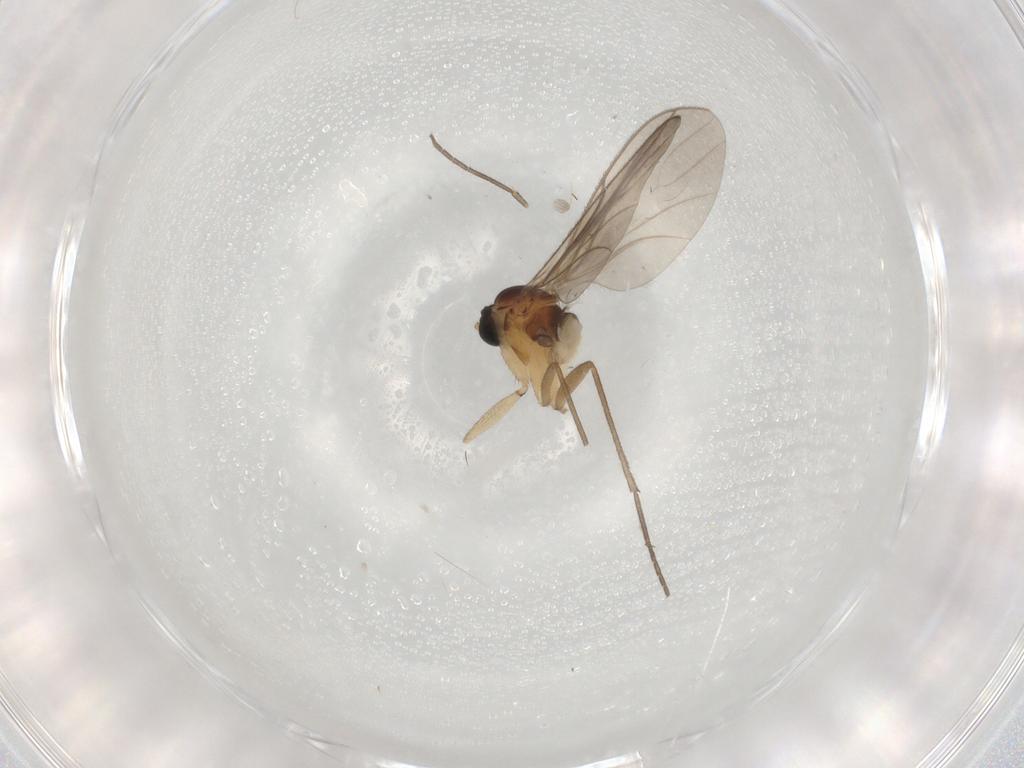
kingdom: Animalia
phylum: Arthropoda
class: Insecta
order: Diptera
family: Sciaridae
